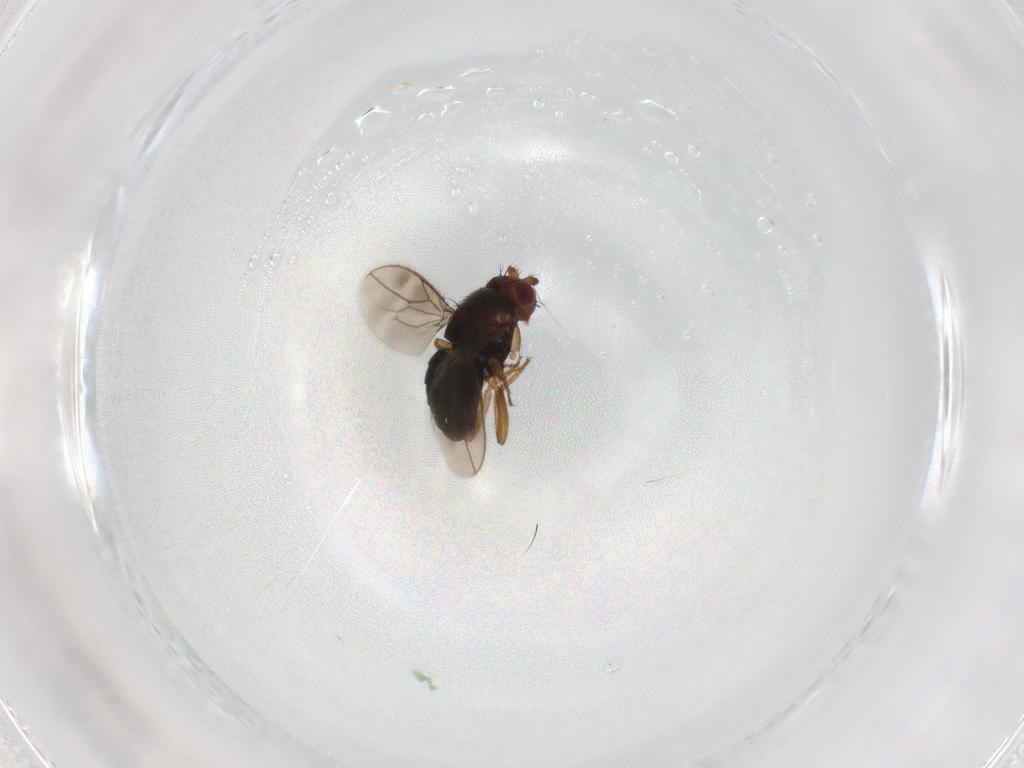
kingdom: Animalia
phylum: Arthropoda
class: Insecta
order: Diptera
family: Sphaeroceridae
